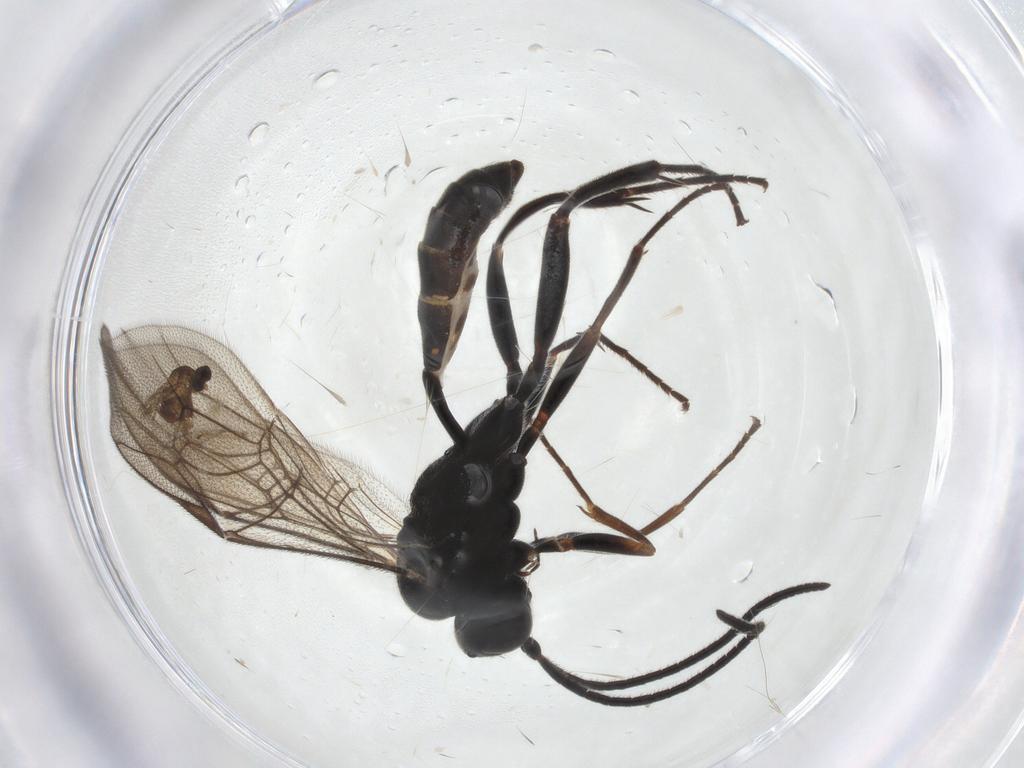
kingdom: Animalia
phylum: Arthropoda
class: Insecta
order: Hymenoptera
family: Ichneumonidae
